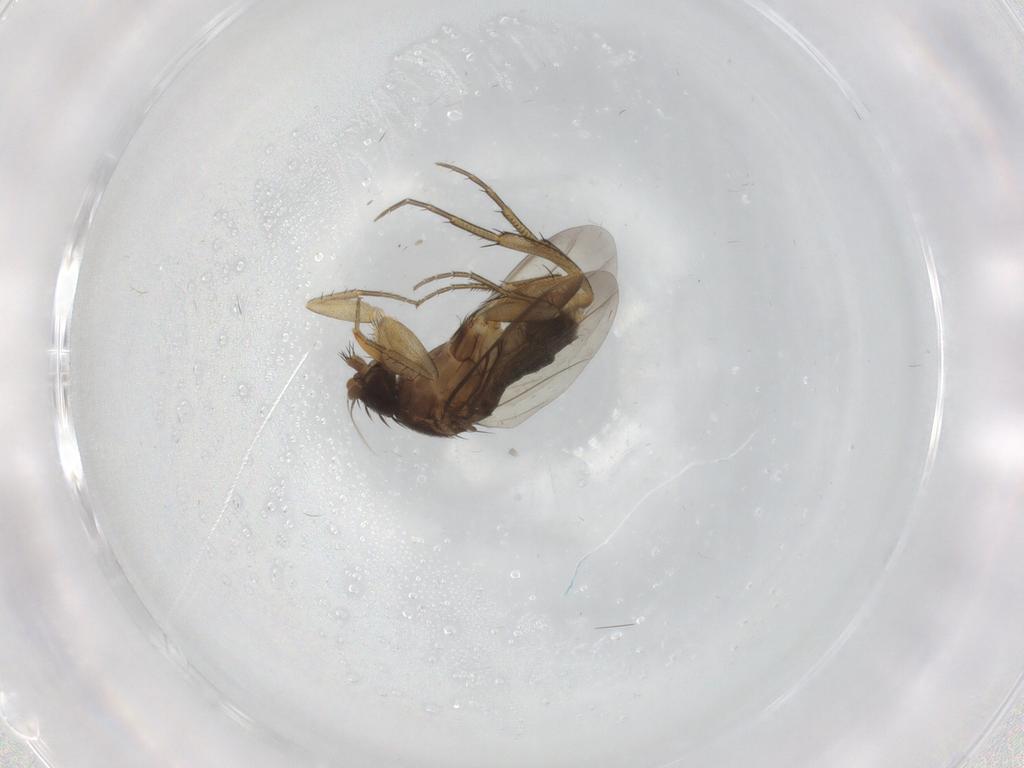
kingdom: Animalia
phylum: Arthropoda
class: Insecta
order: Diptera
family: Phoridae
